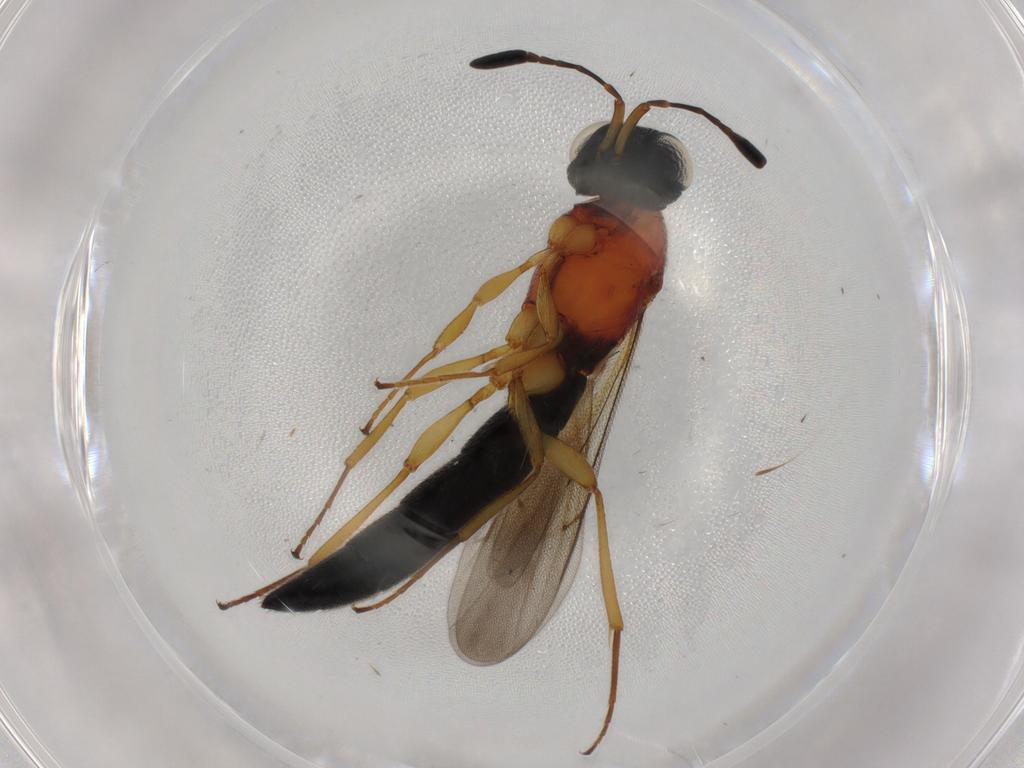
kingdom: Animalia
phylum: Arthropoda
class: Insecta
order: Hymenoptera
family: Scelionidae
